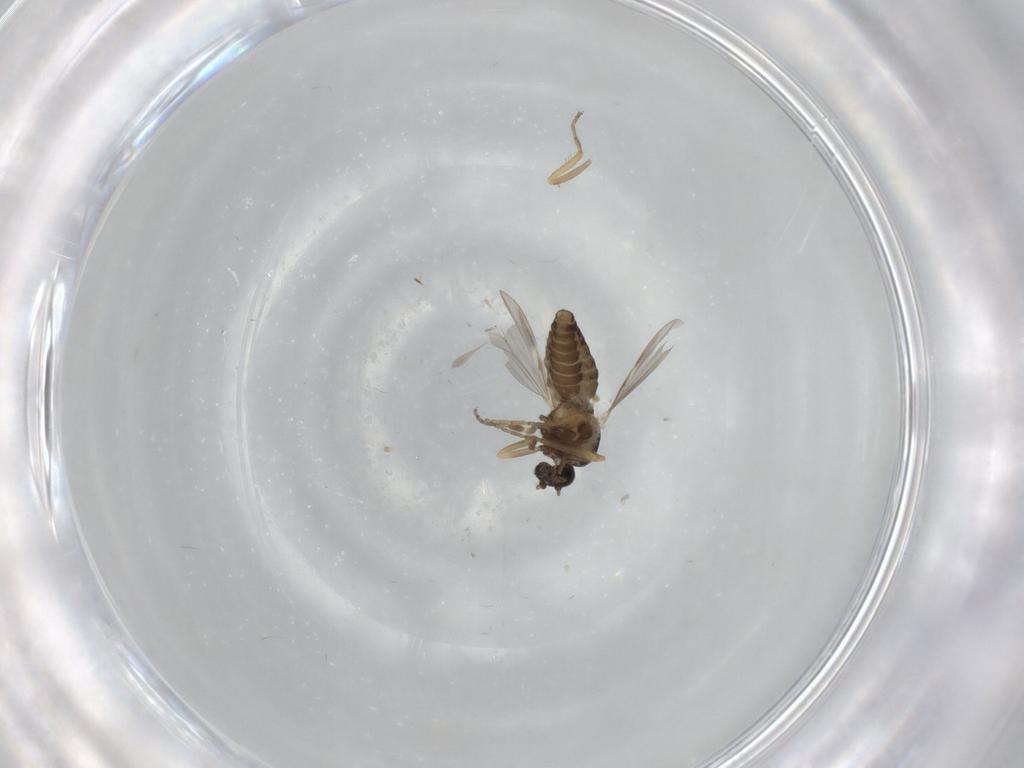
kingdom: Animalia
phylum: Arthropoda
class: Insecta
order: Diptera
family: Ceratopogonidae
